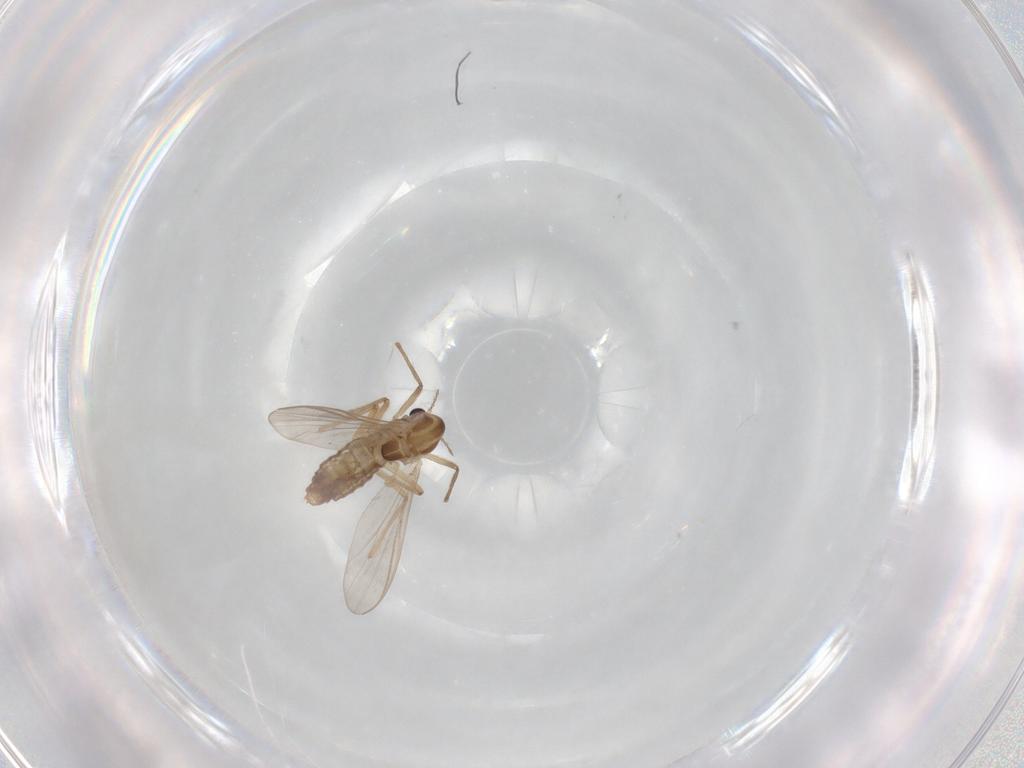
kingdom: Animalia
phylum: Arthropoda
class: Insecta
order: Diptera
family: Chironomidae
